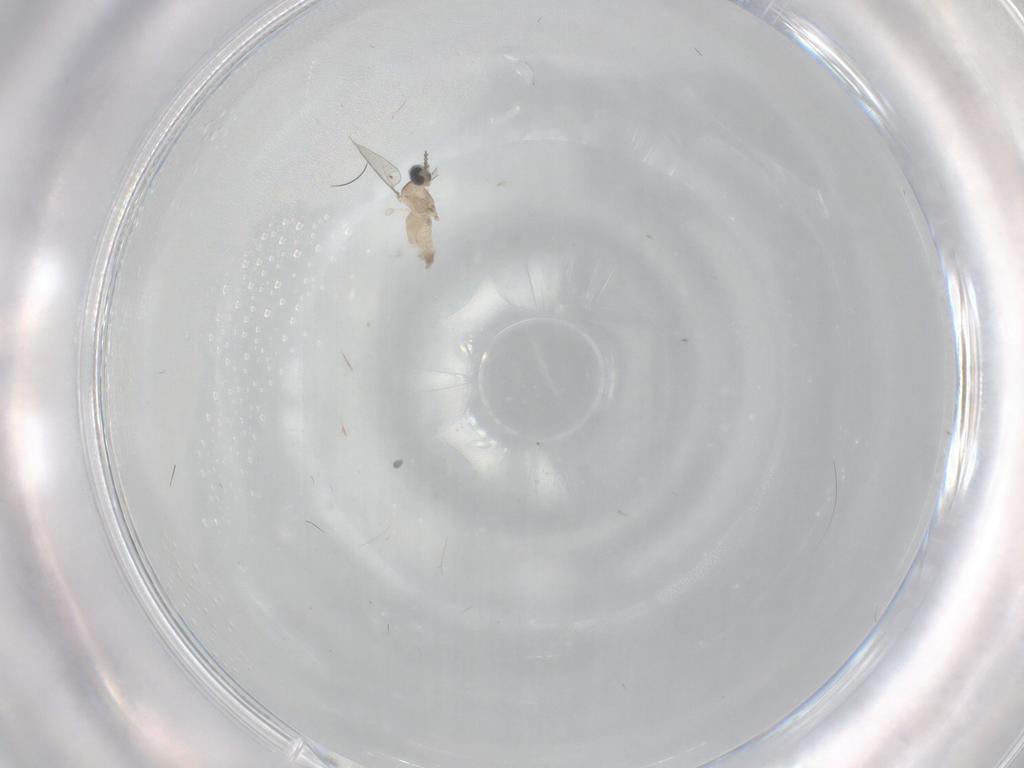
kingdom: Animalia
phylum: Arthropoda
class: Insecta
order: Diptera
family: Cecidomyiidae
